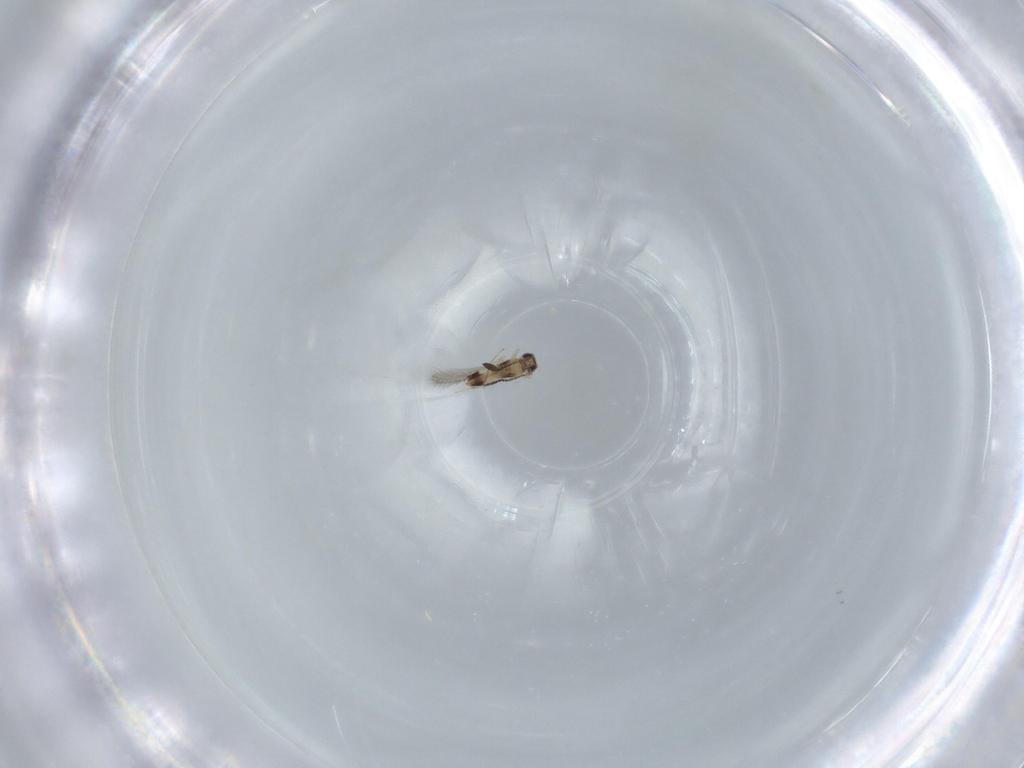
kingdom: Animalia
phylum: Arthropoda
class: Insecta
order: Hymenoptera
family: Mymaridae
